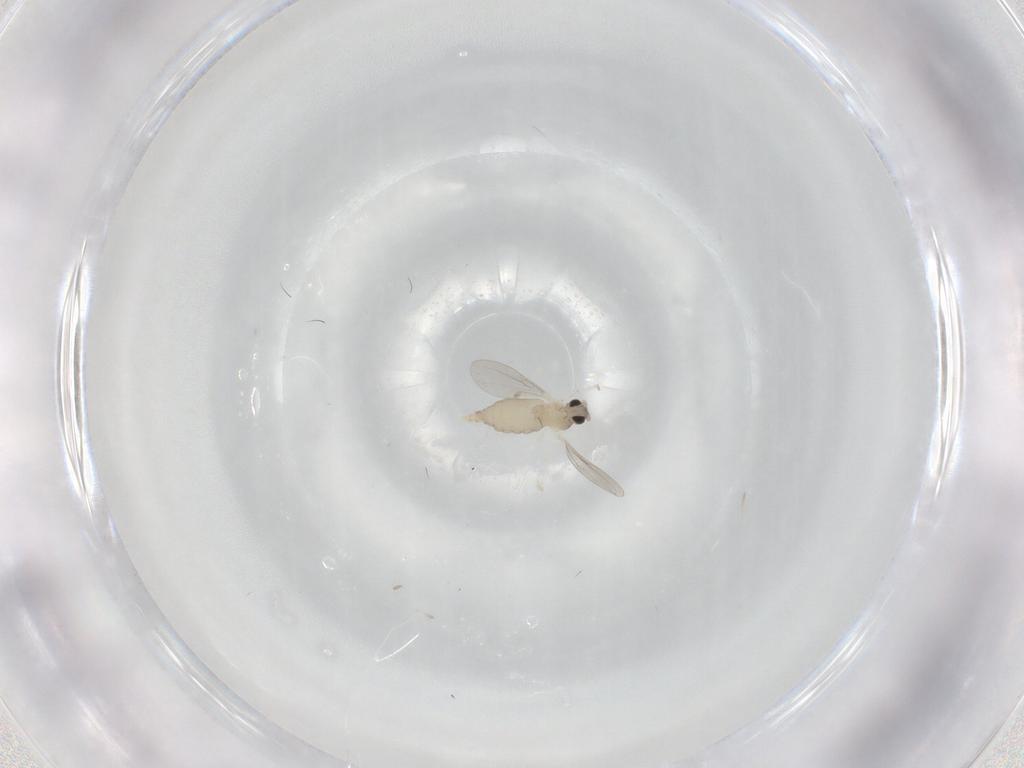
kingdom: Animalia
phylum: Arthropoda
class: Insecta
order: Diptera
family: Cecidomyiidae
